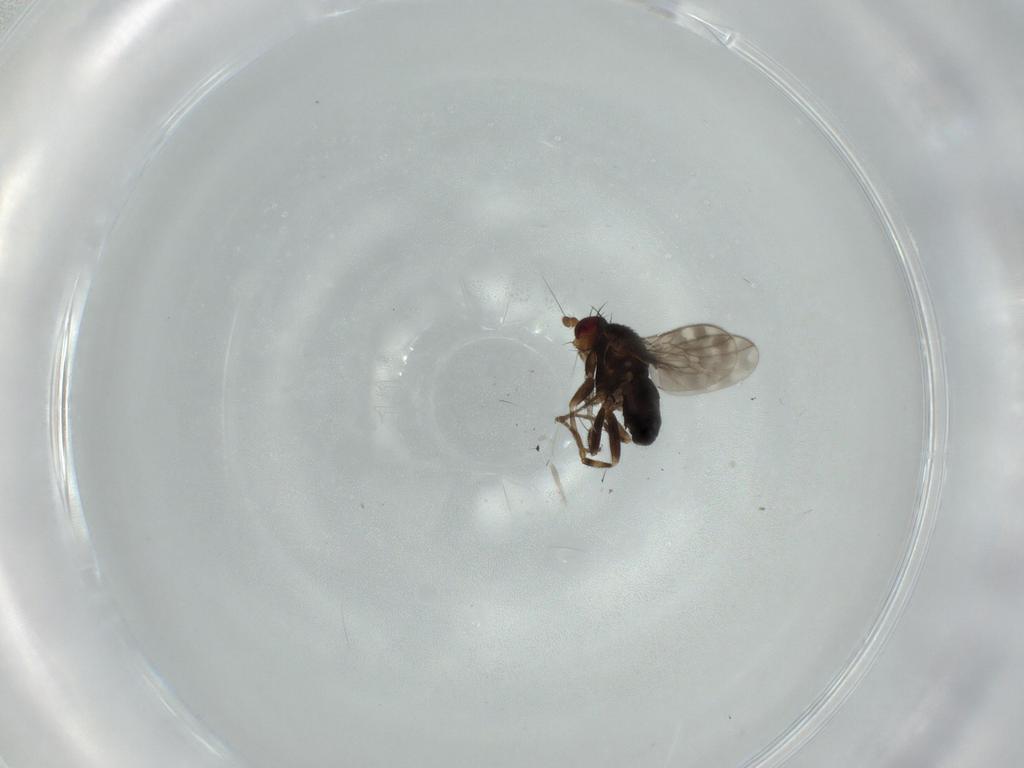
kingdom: Animalia
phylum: Arthropoda
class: Insecta
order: Diptera
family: Sphaeroceridae
